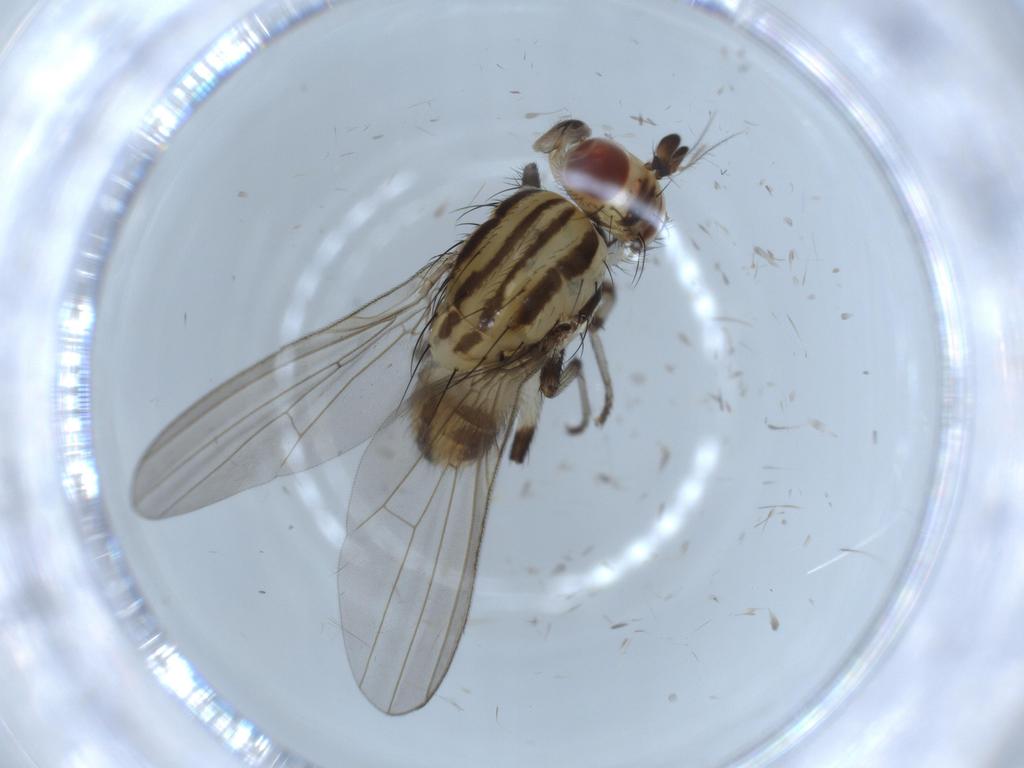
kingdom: Animalia
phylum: Arthropoda
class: Insecta
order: Diptera
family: Lauxaniidae
